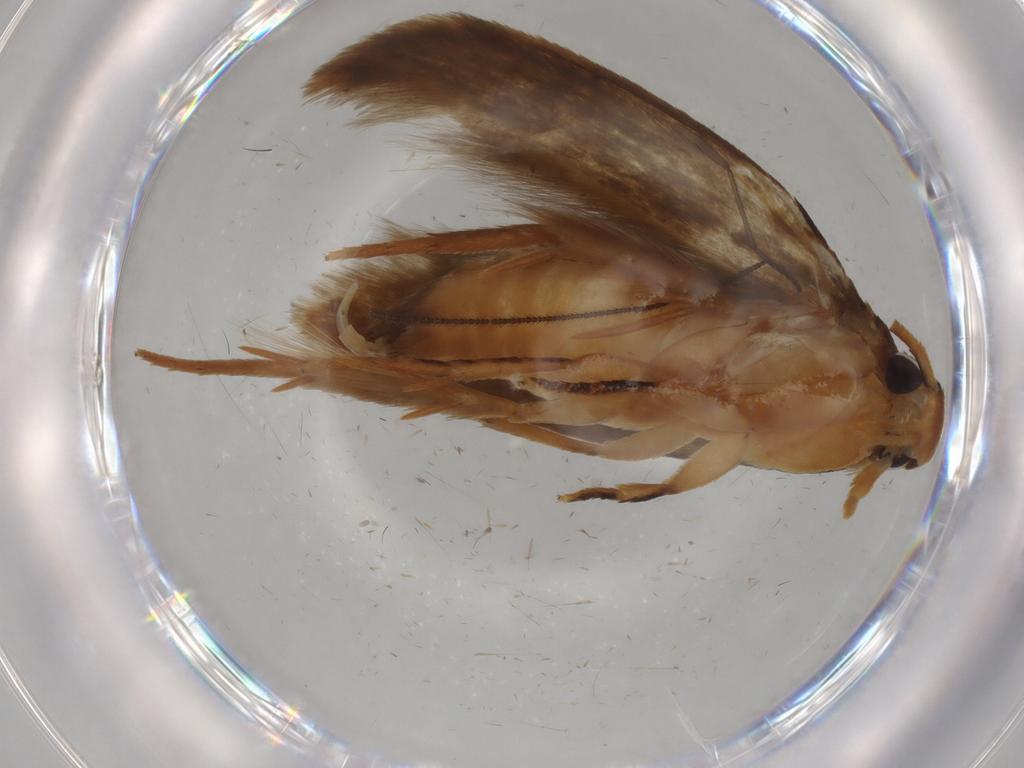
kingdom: Animalia
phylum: Arthropoda
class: Insecta
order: Lepidoptera
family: Tineidae
